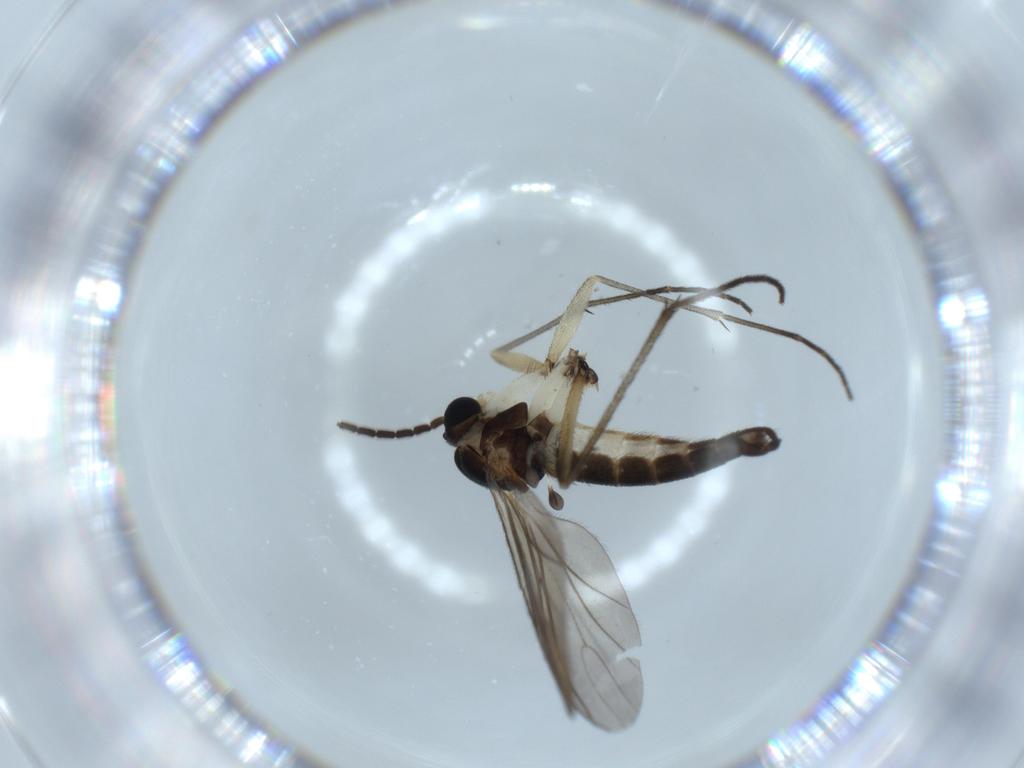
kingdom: Animalia
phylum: Arthropoda
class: Insecta
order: Diptera
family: Sciaridae
